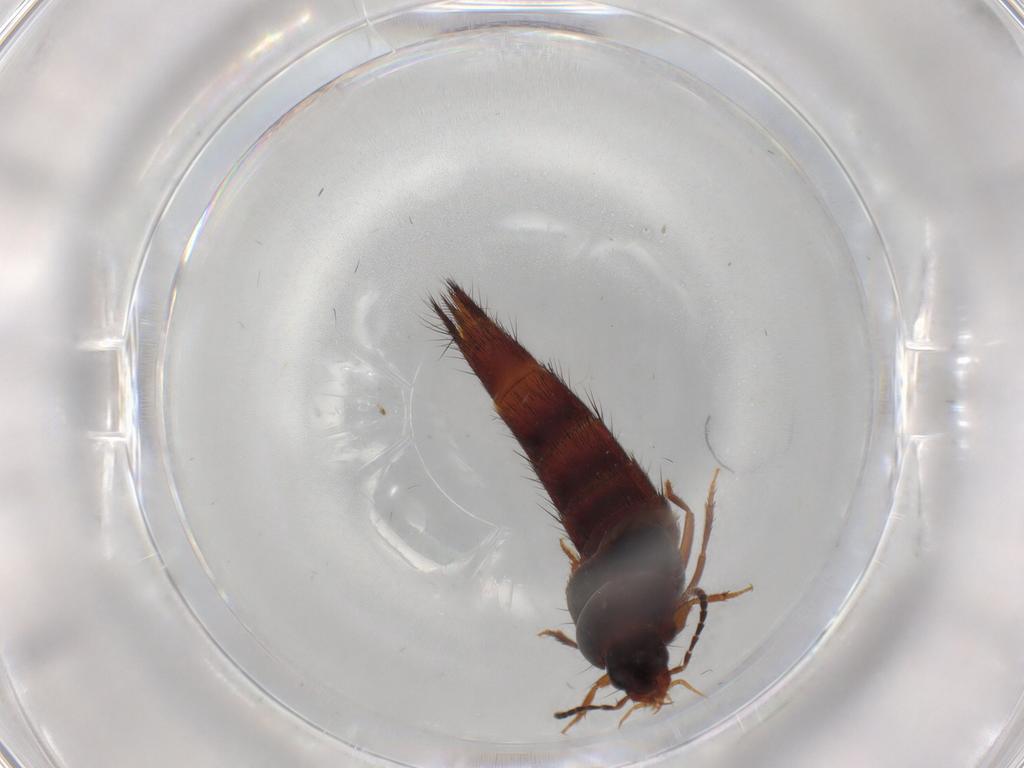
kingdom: Animalia
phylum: Arthropoda
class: Insecta
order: Coleoptera
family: Staphylinidae
